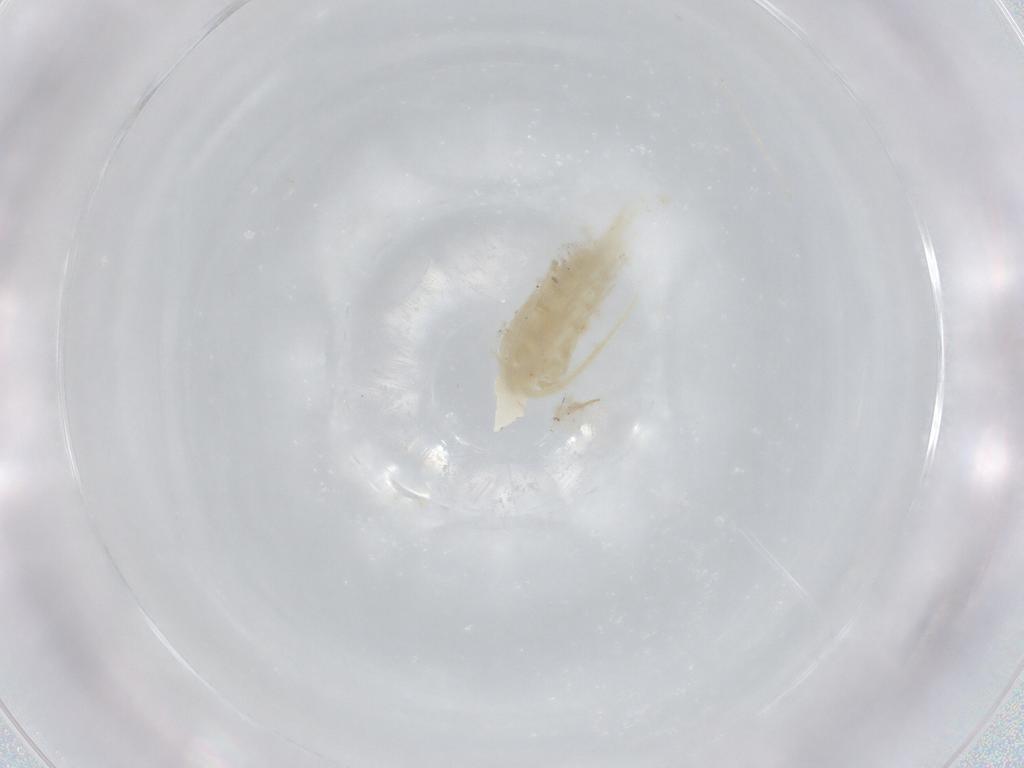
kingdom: Animalia
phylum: Arthropoda
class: Copepoda
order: Calanoida
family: Diaptomidae
